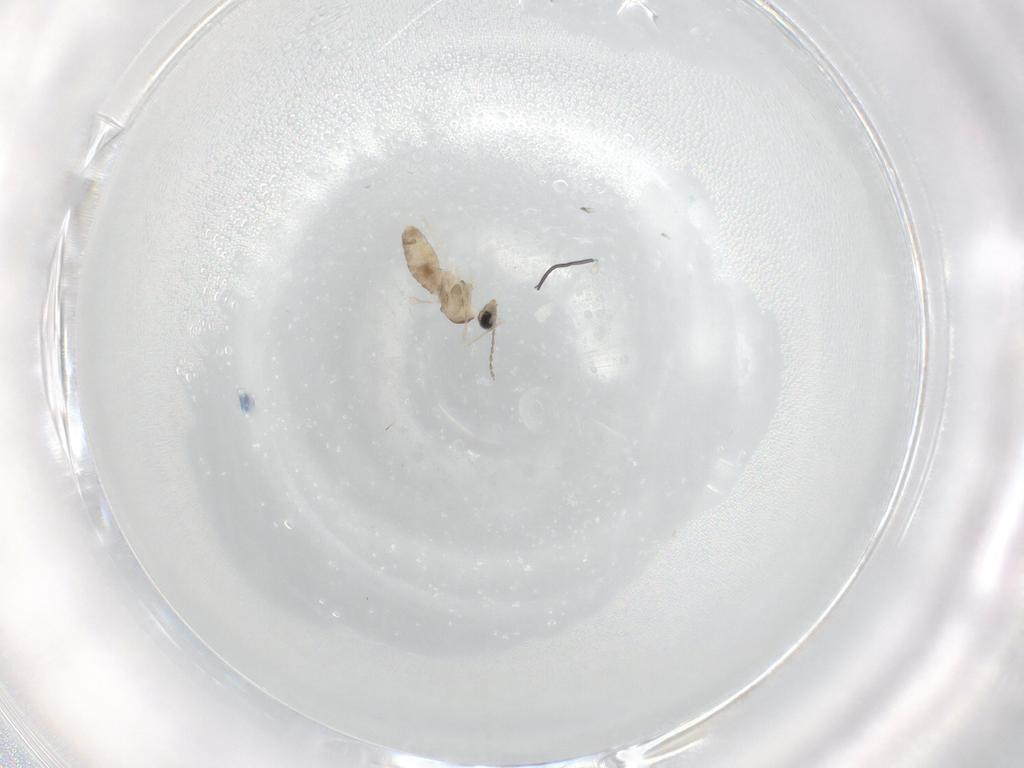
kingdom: Animalia
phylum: Arthropoda
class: Insecta
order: Diptera
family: Cecidomyiidae
